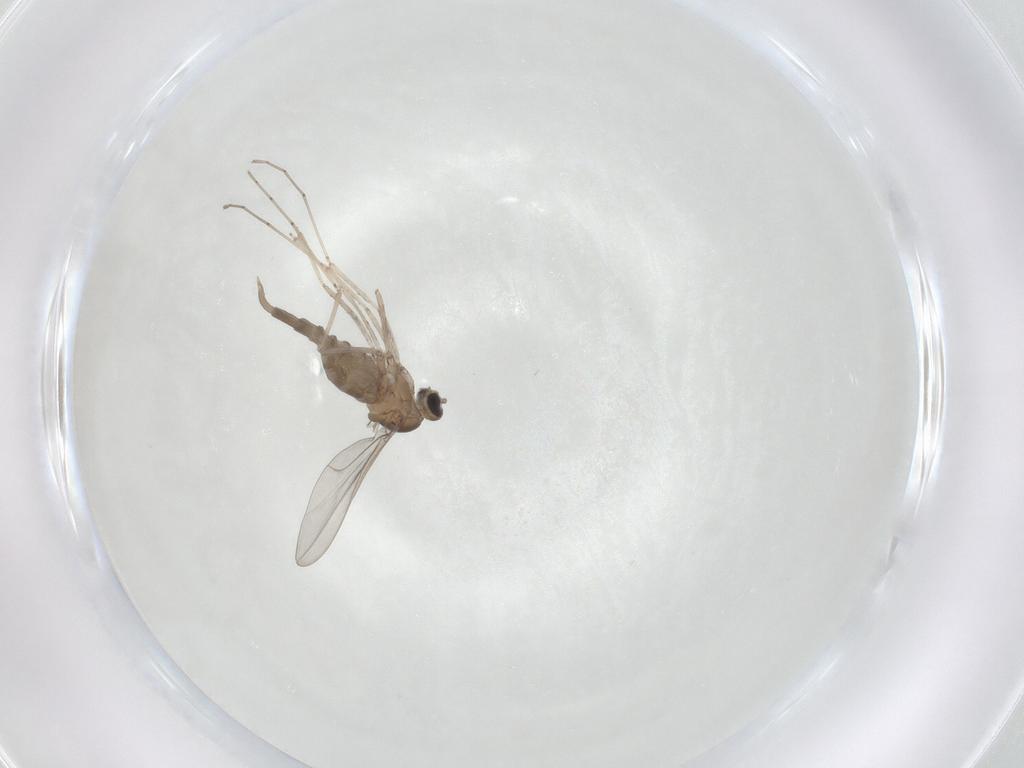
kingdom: Animalia
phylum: Arthropoda
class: Insecta
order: Diptera
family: Cecidomyiidae
